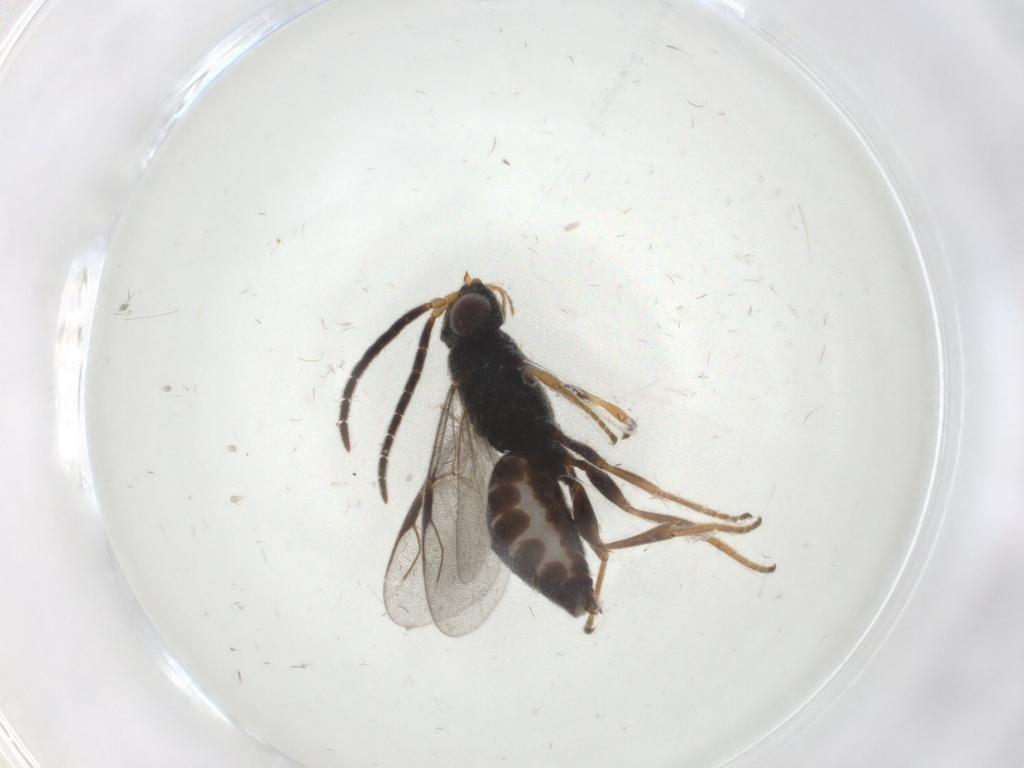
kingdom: Animalia
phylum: Arthropoda
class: Insecta
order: Hymenoptera
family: Dryinidae
